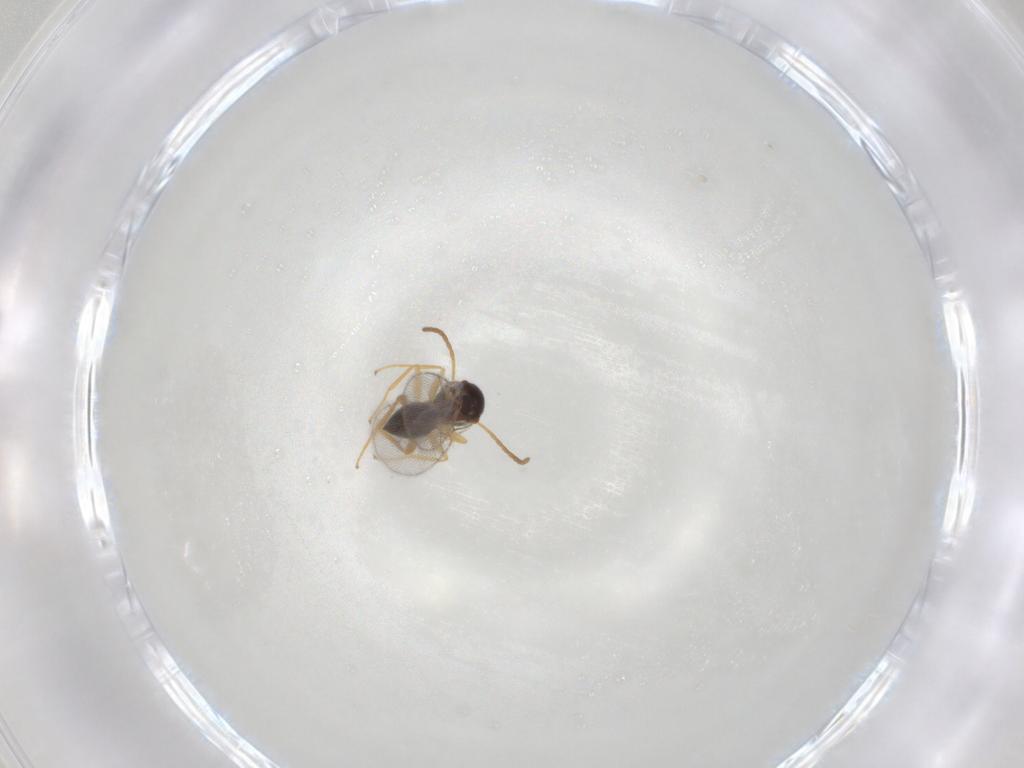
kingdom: Animalia
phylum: Arthropoda
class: Insecta
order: Hymenoptera
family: Figitidae
